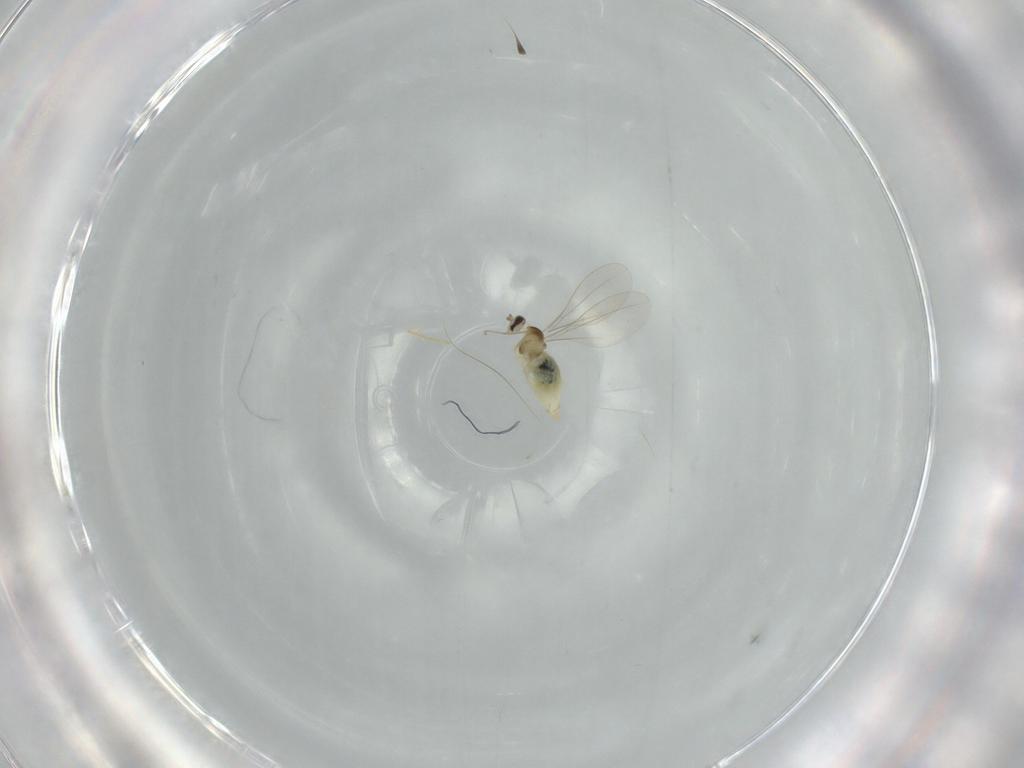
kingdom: Animalia
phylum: Arthropoda
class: Insecta
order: Diptera
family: Cecidomyiidae
